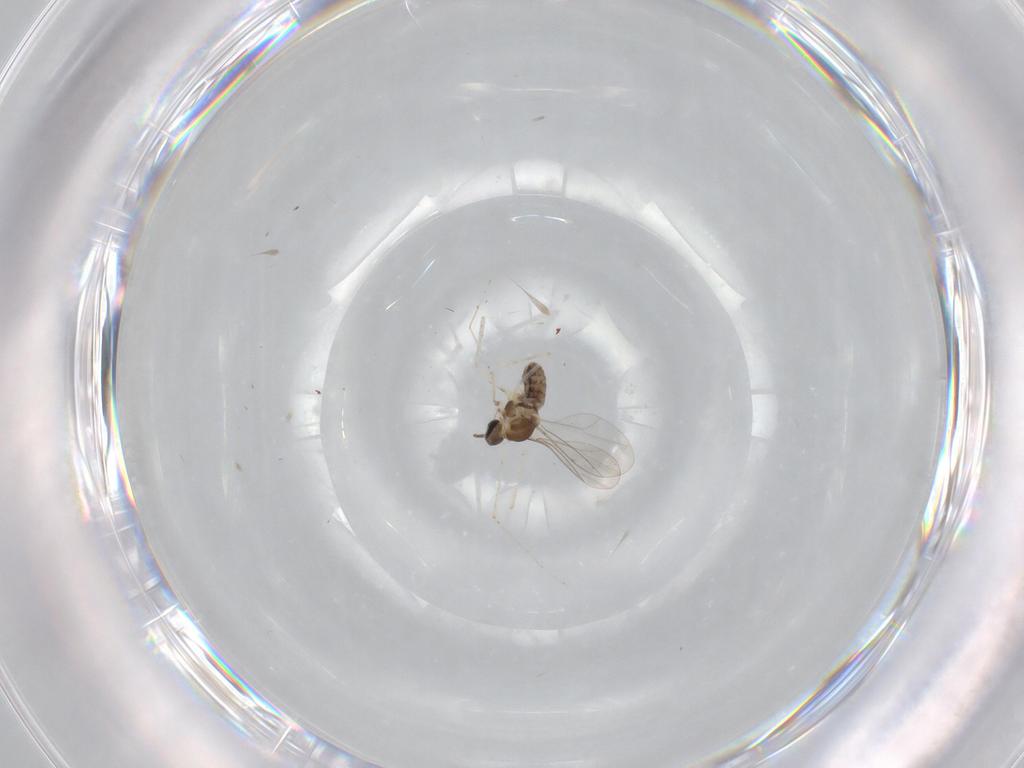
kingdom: Animalia
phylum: Arthropoda
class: Insecta
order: Diptera
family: Cecidomyiidae
